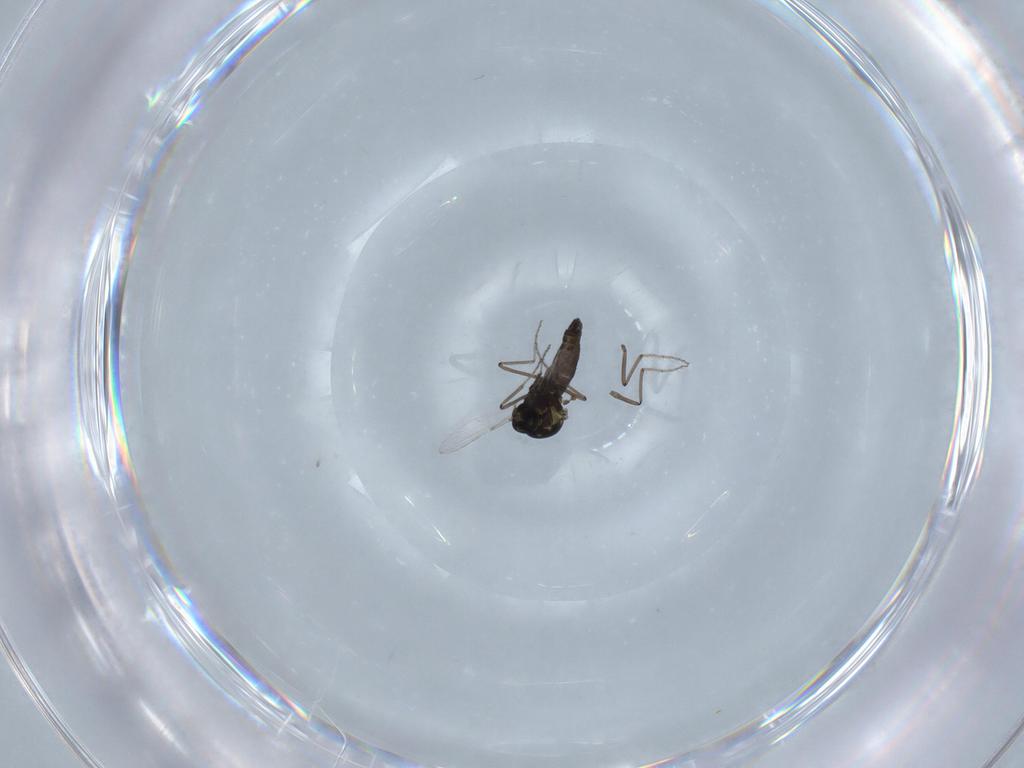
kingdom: Animalia
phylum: Arthropoda
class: Insecta
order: Diptera
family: Ceratopogonidae
